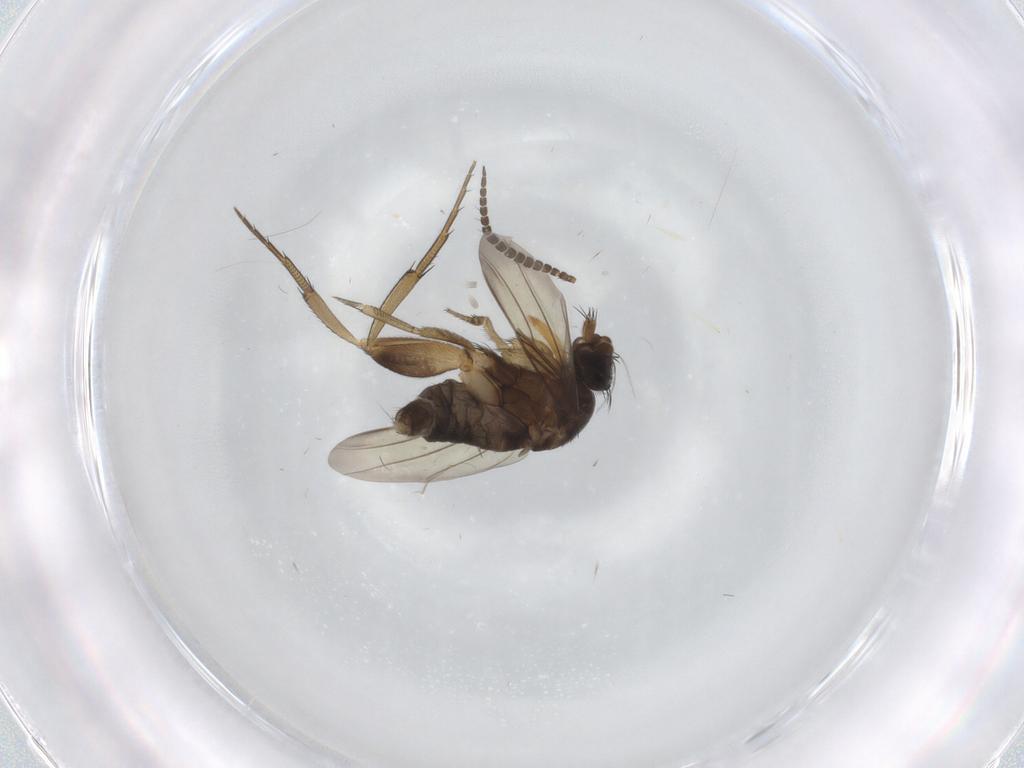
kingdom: Animalia
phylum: Arthropoda
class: Insecta
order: Diptera
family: Ditomyiidae
